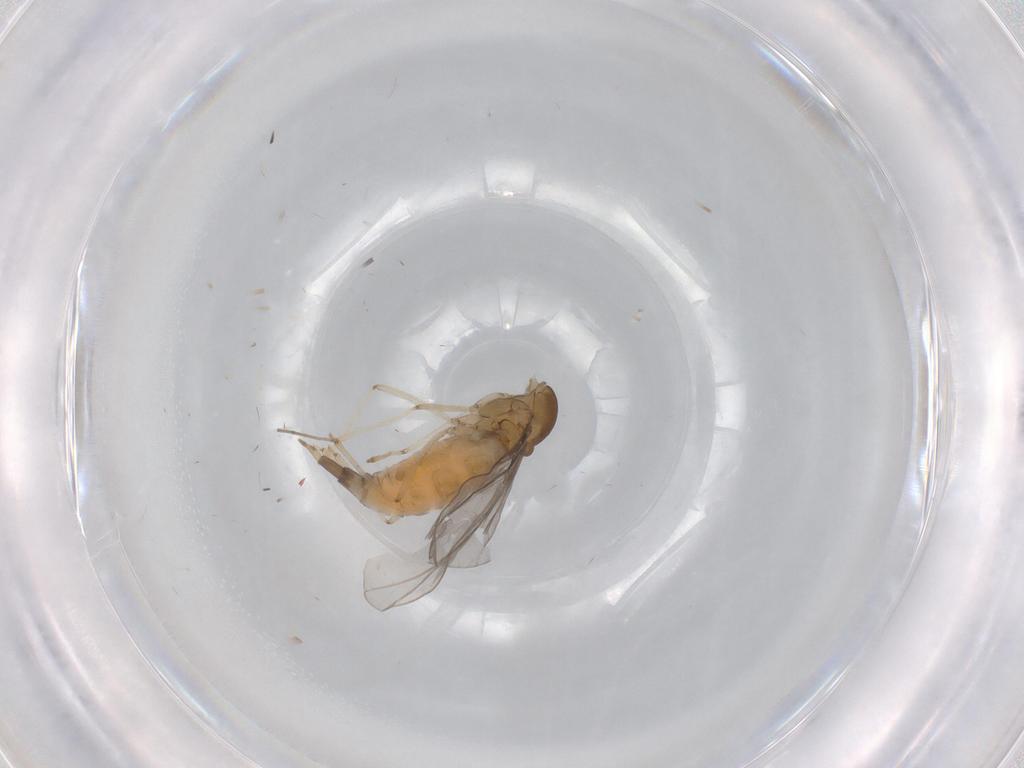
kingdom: Animalia
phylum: Arthropoda
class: Insecta
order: Diptera
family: Cecidomyiidae
